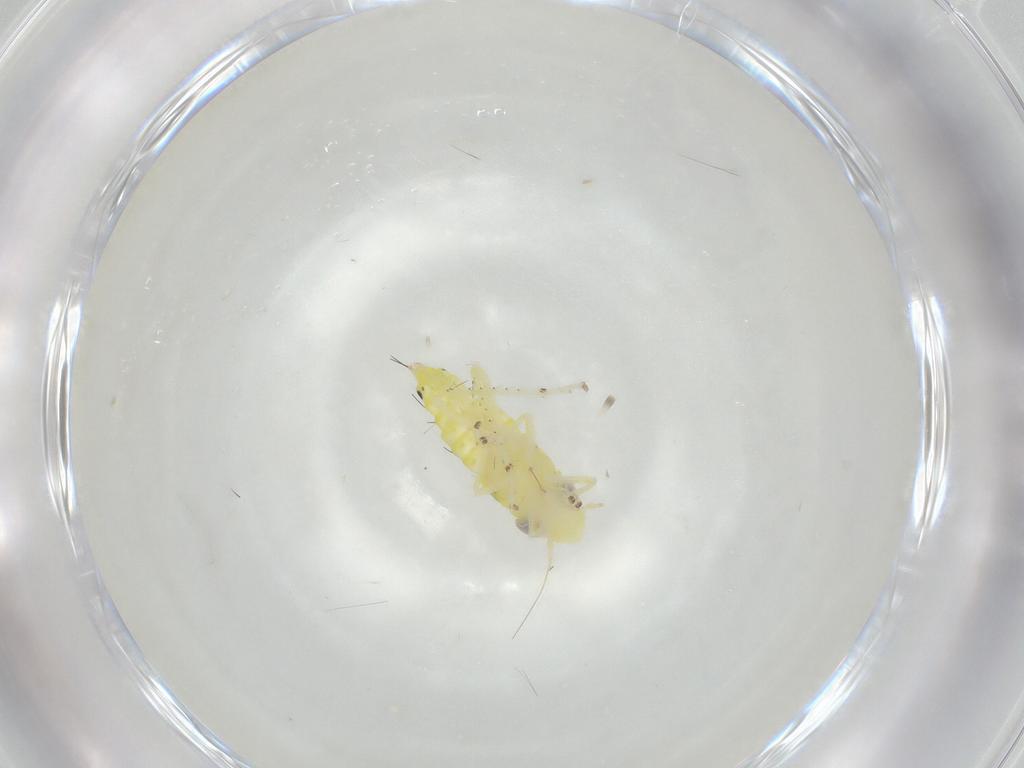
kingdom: Animalia
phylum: Arthropoda
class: Insecta
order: Hemiptera
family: Cicadellidae
